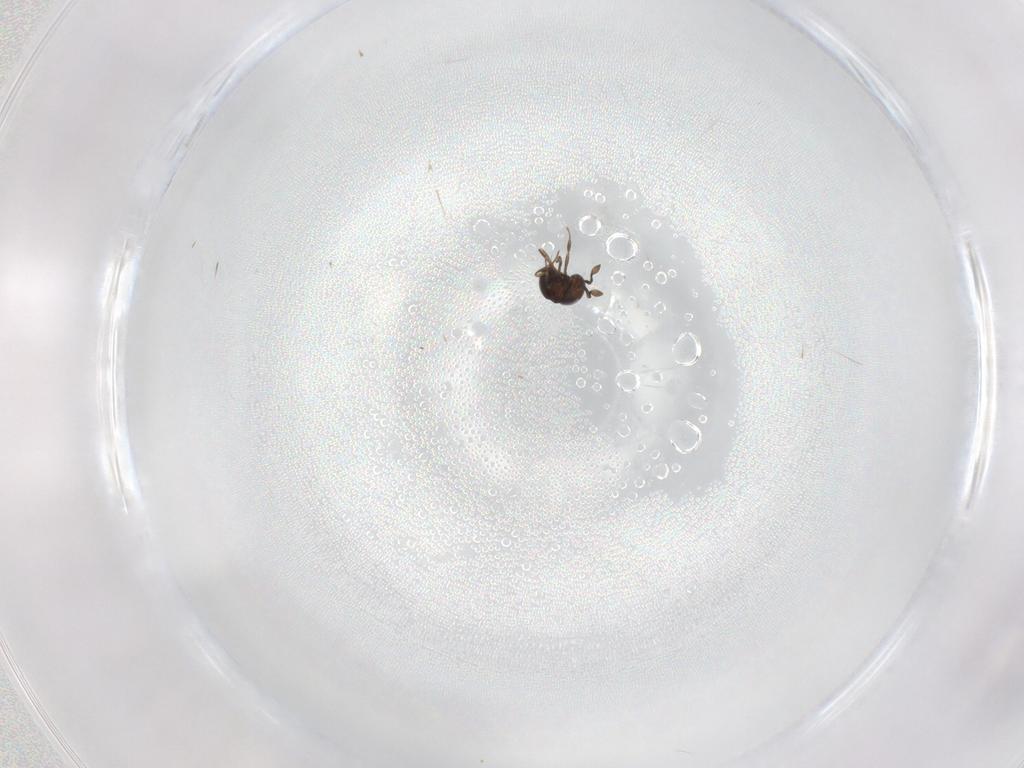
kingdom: Animalia
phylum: Arthropoda
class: Insecta
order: Hymenoptera
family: Scelionidae
